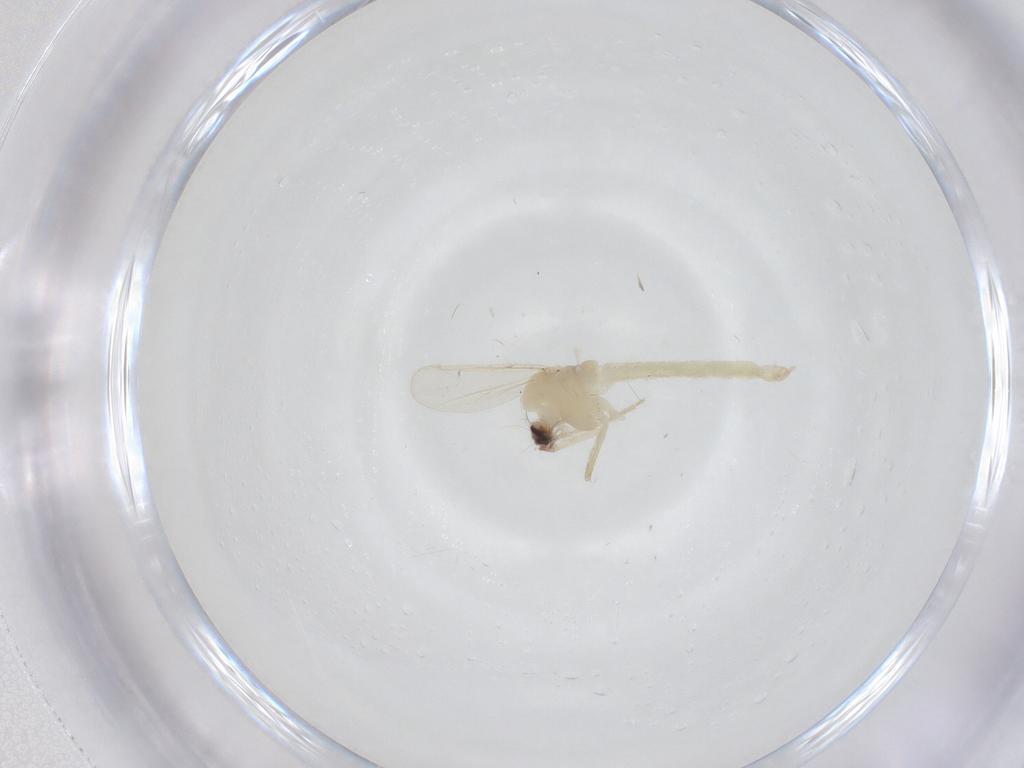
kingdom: Animalia
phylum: Arthropoda
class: Insecta
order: Diptera
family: Chironomidae
